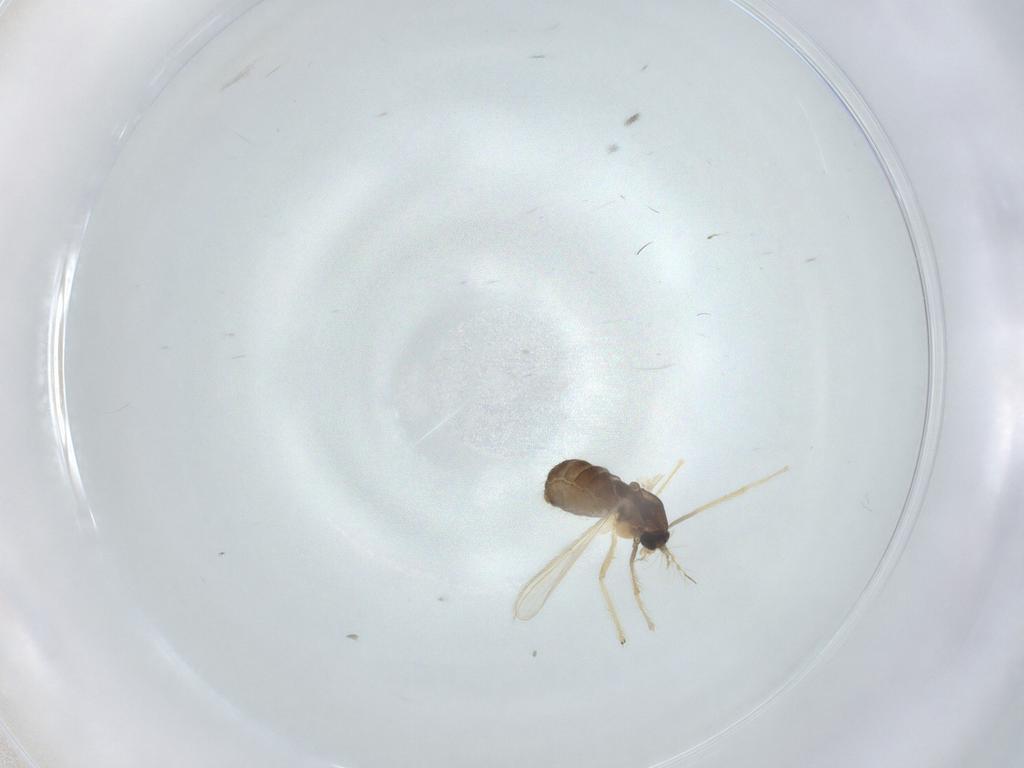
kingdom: Animalia
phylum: Arthropoda
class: Insecta
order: Diptera
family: Chironomidae
